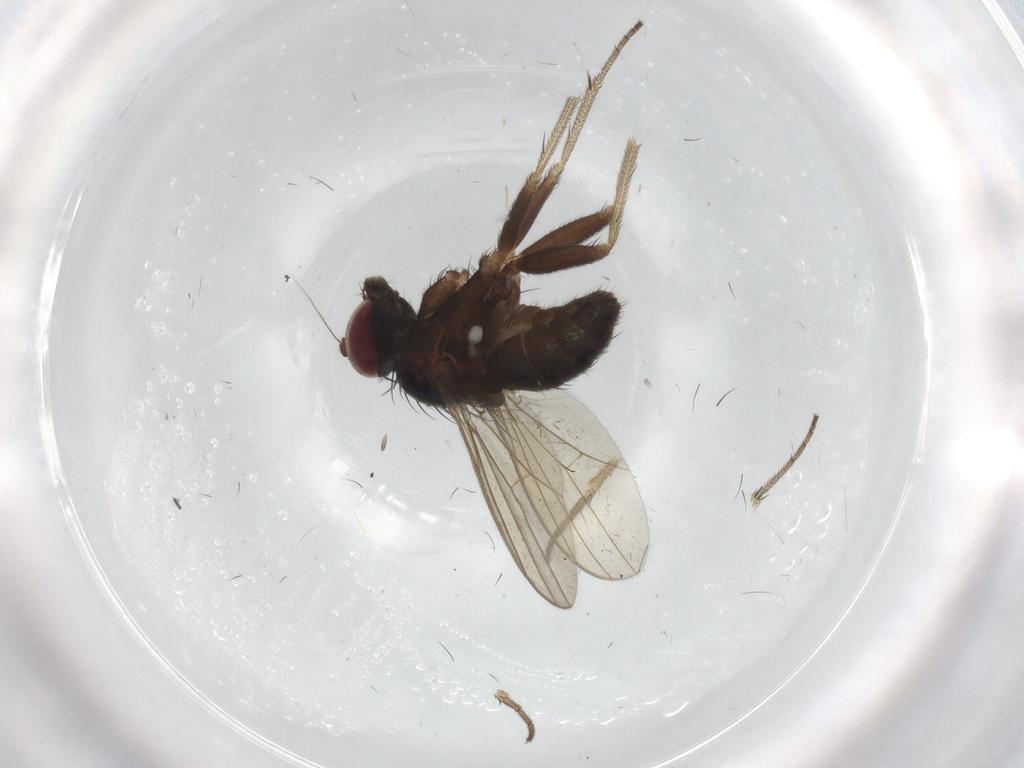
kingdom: Animalia
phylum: Arthropoda
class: Insecta
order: Diptera
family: Dolichopodidae
